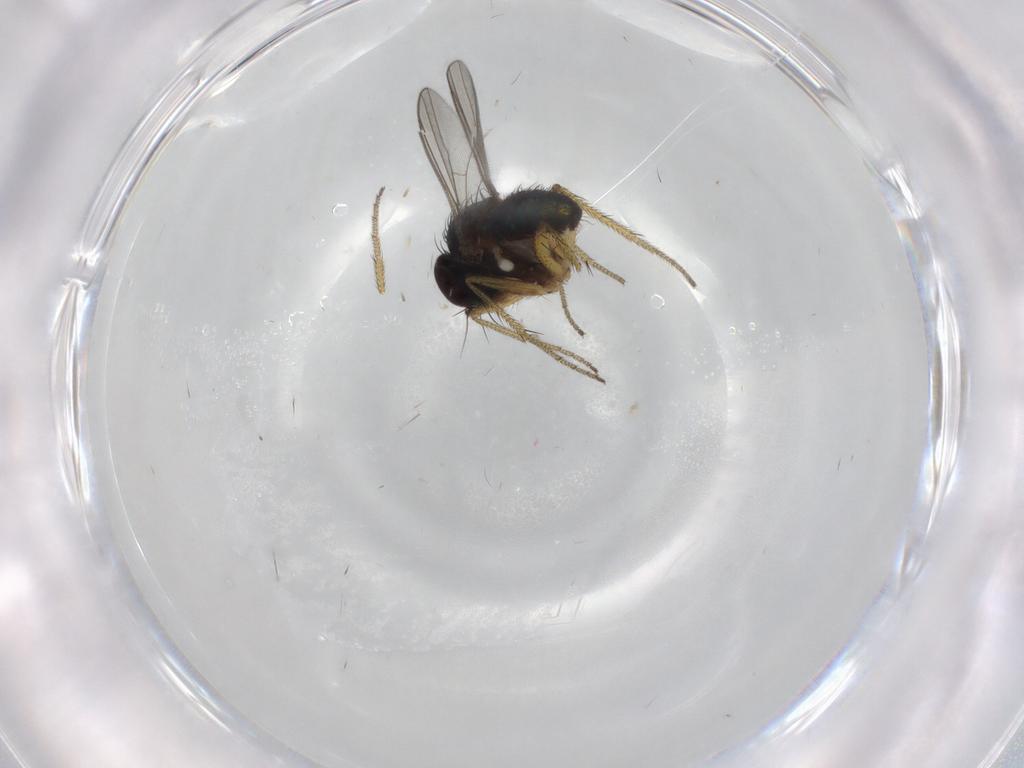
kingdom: Animalia
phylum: Arthropoda
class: Insecta
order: Diptera
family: Dolichopodidae
